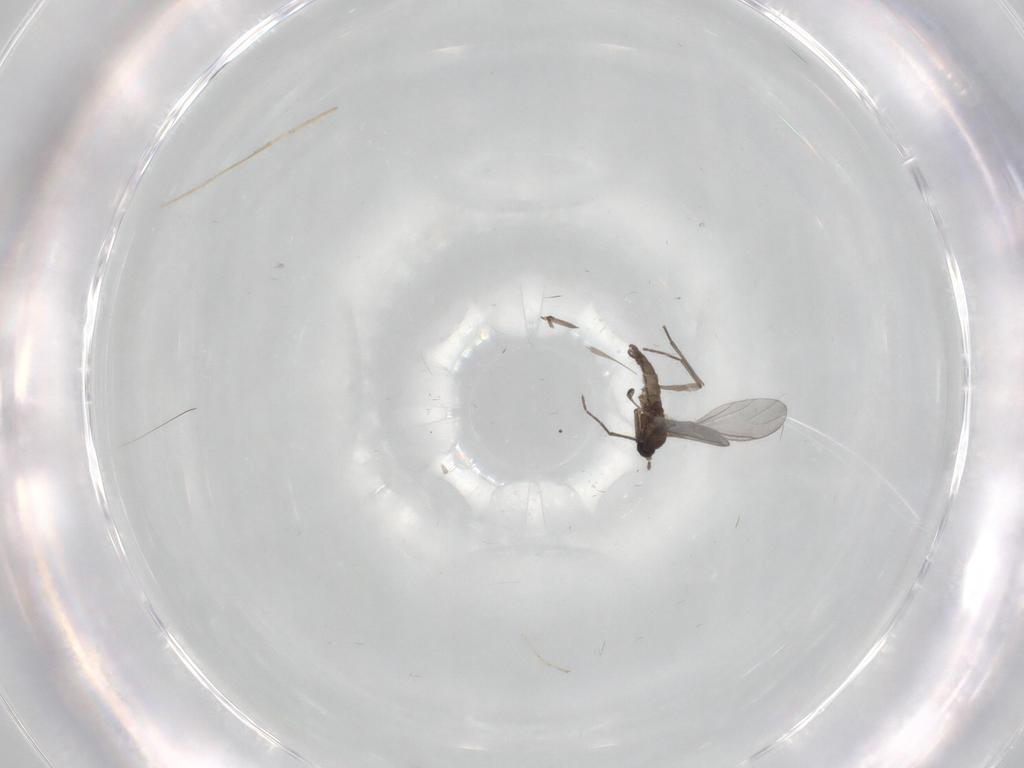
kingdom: Animalia
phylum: Arthropoda
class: Insecta
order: Diptera
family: Sciaridae
